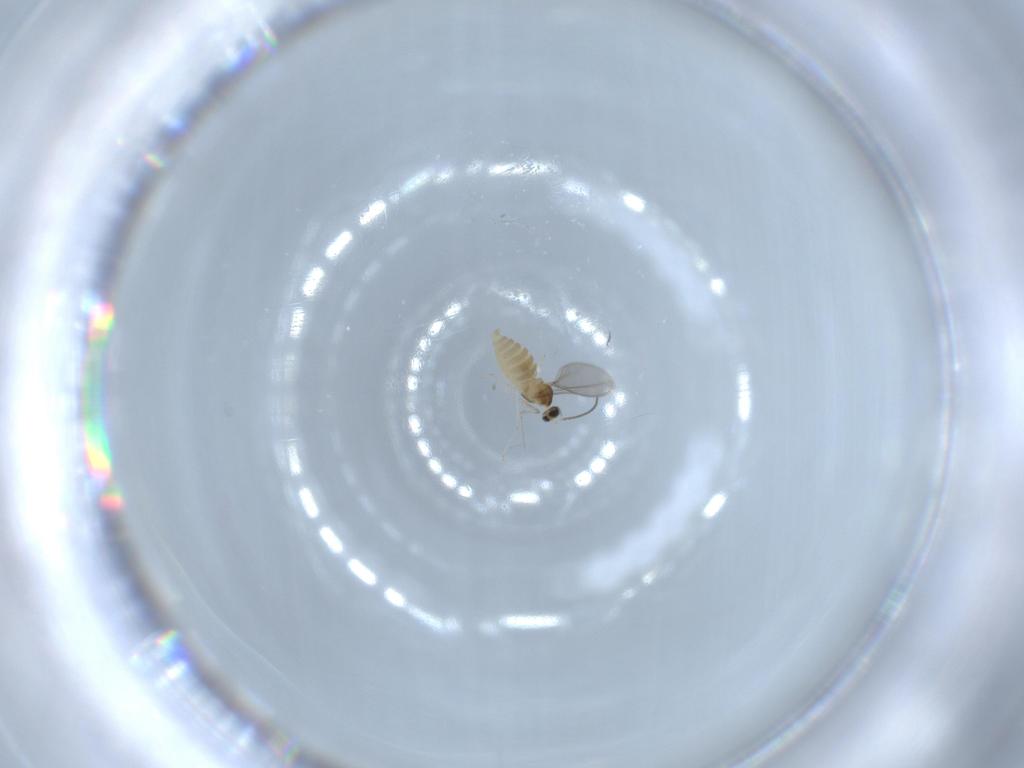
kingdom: Animalia
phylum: Arthropoda
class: Insecta
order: Diptera
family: Cecidomyiidae
